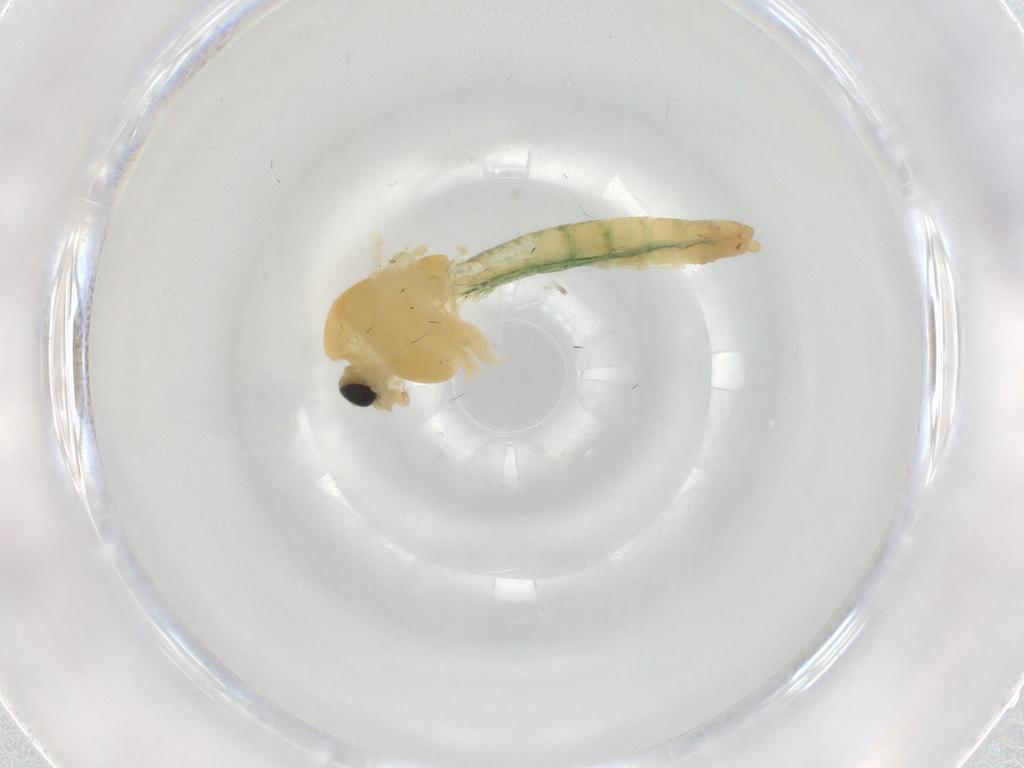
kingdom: Animalia
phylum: Arthropoda
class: Insecta
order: Diptera
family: Chironomidae
